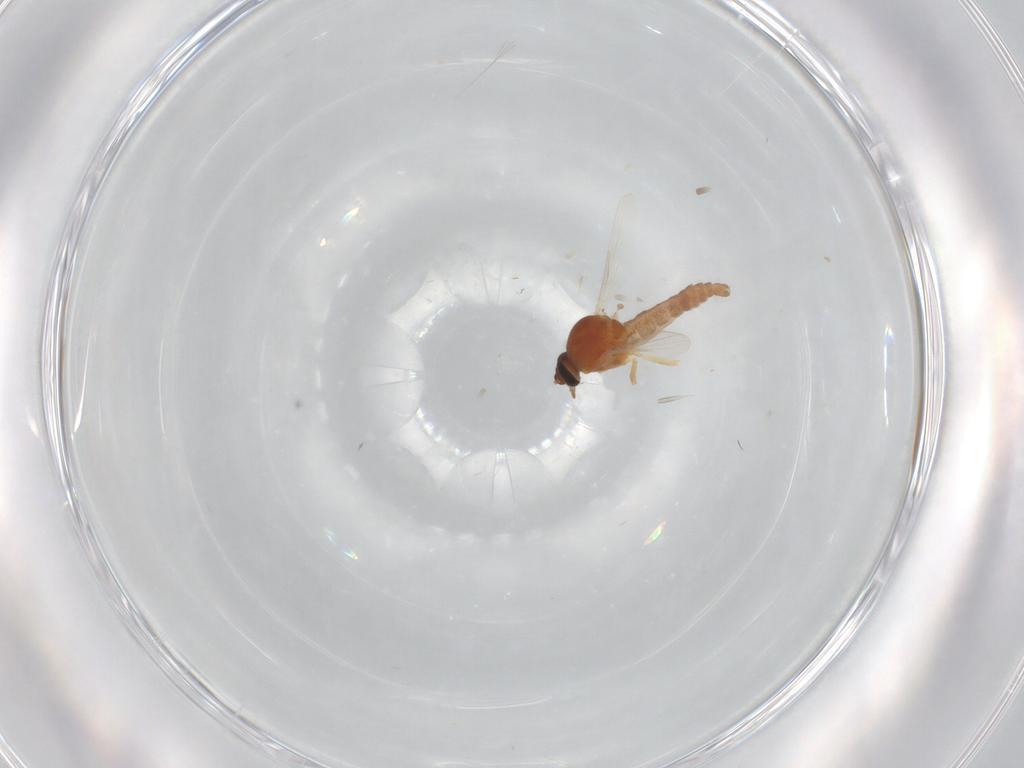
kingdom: Animalia
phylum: Arthropoda
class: Insecta
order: Diptera
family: Ceratopogonidae
